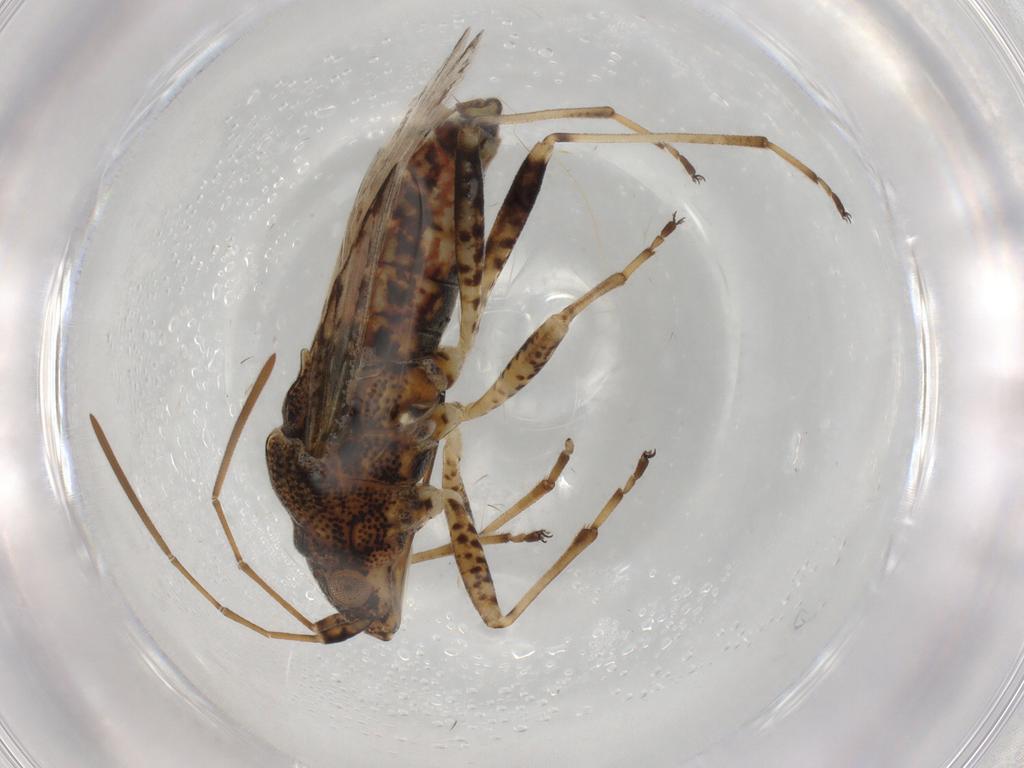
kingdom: Animalia
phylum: Arthropoda
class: Insecta
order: Hemiptera
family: Lygaeidae
